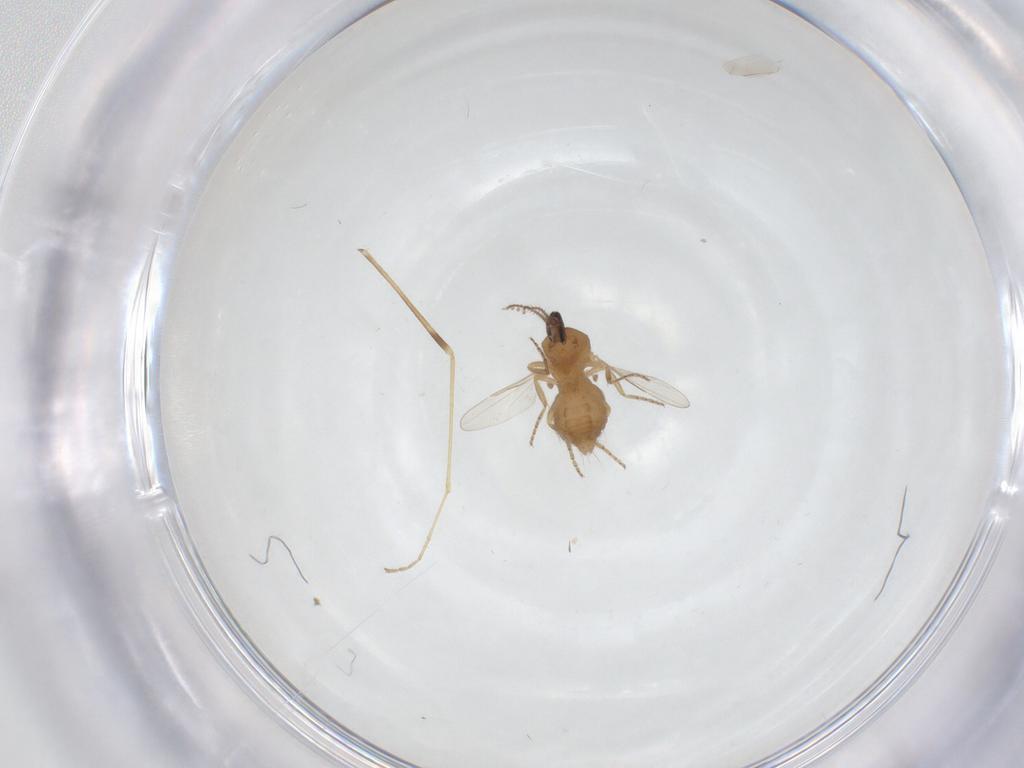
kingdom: Animalia
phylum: Arthropoda
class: Insecta
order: Diptera
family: Ceratopogonidae
